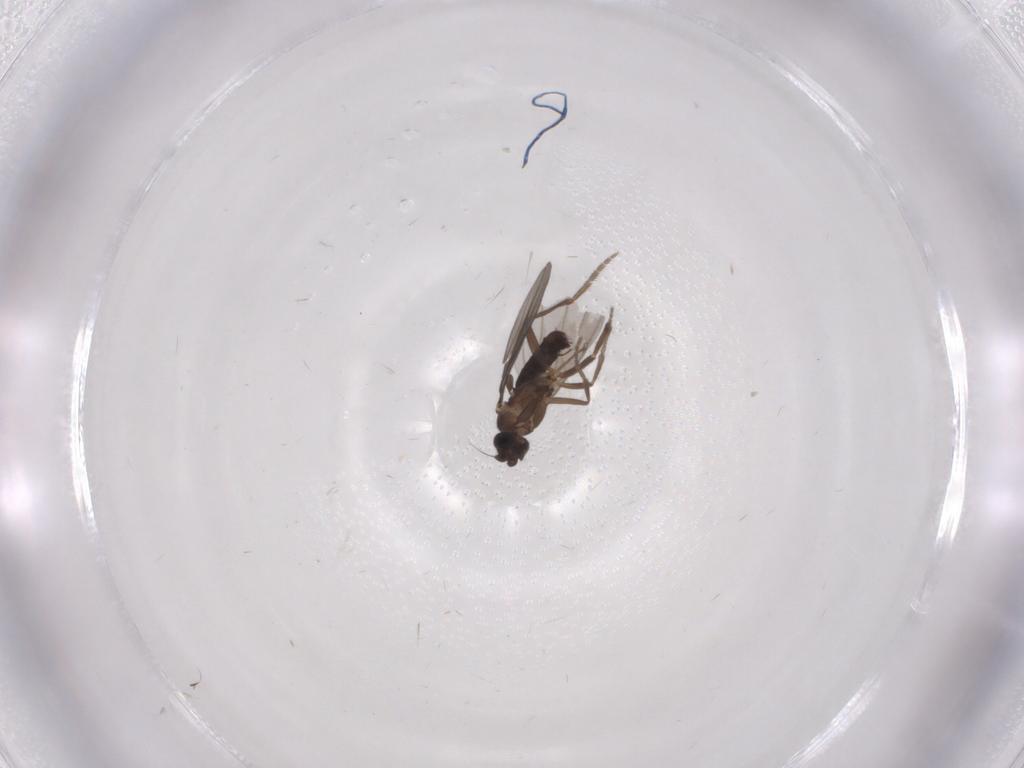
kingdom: Animalia
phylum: Arthropoda
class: Insecta
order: Diptera
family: Phoridae
